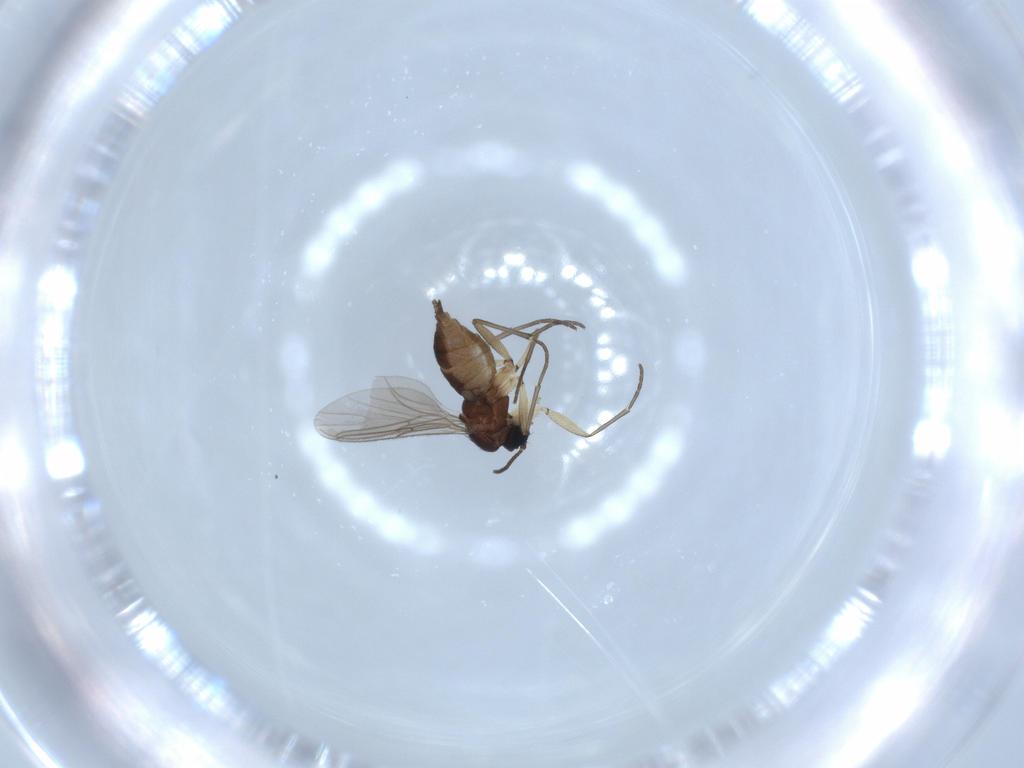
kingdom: Animalia
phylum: Arthropoda
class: Insecta
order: Diptera
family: Sciaridae
